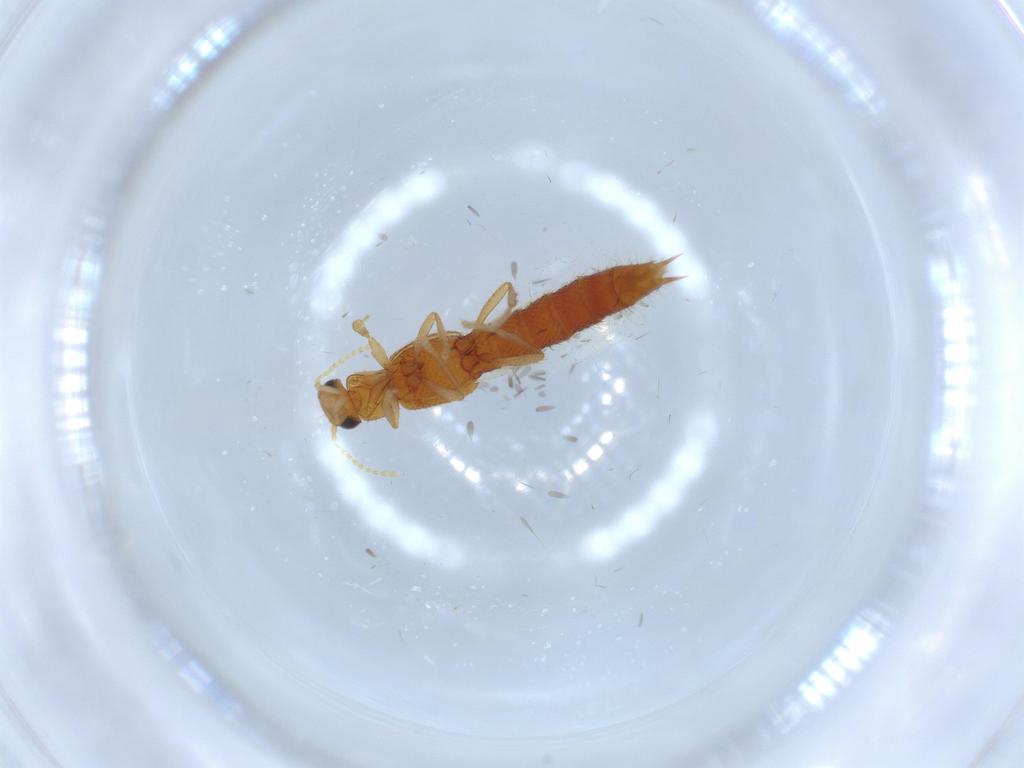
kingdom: Animalia
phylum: Arthropoda
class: Insecta
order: Coleoptera
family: Staphylinidae
